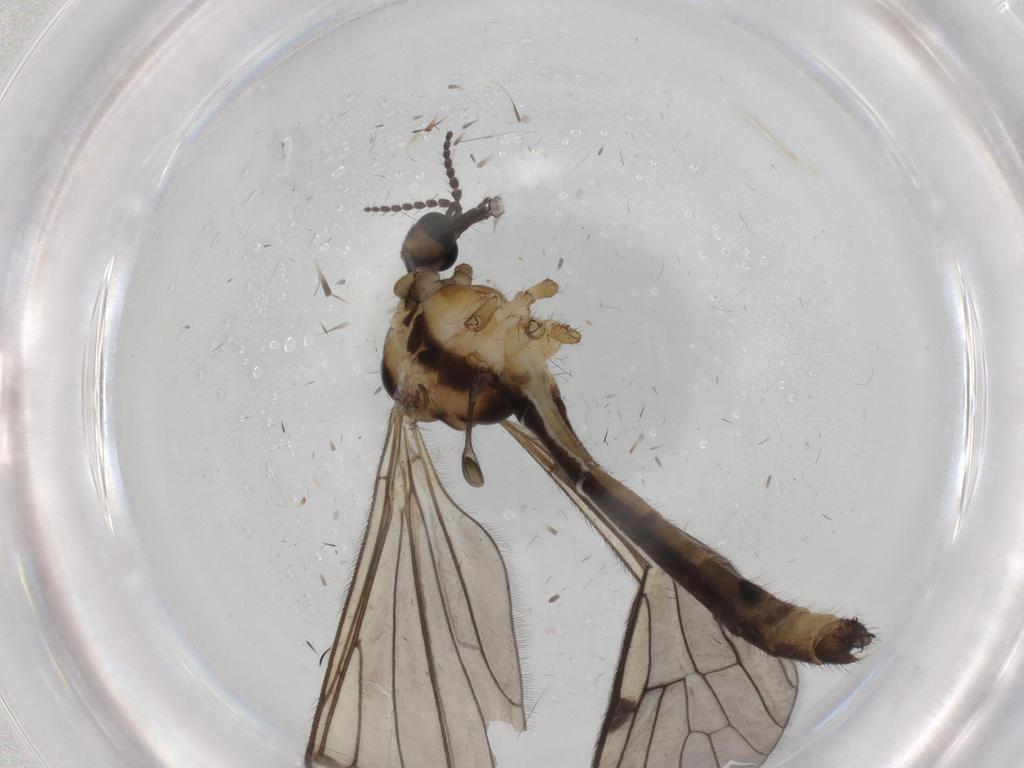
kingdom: Animalia
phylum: Arthropoda
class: Insecta
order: Diptera
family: Limoniidae
